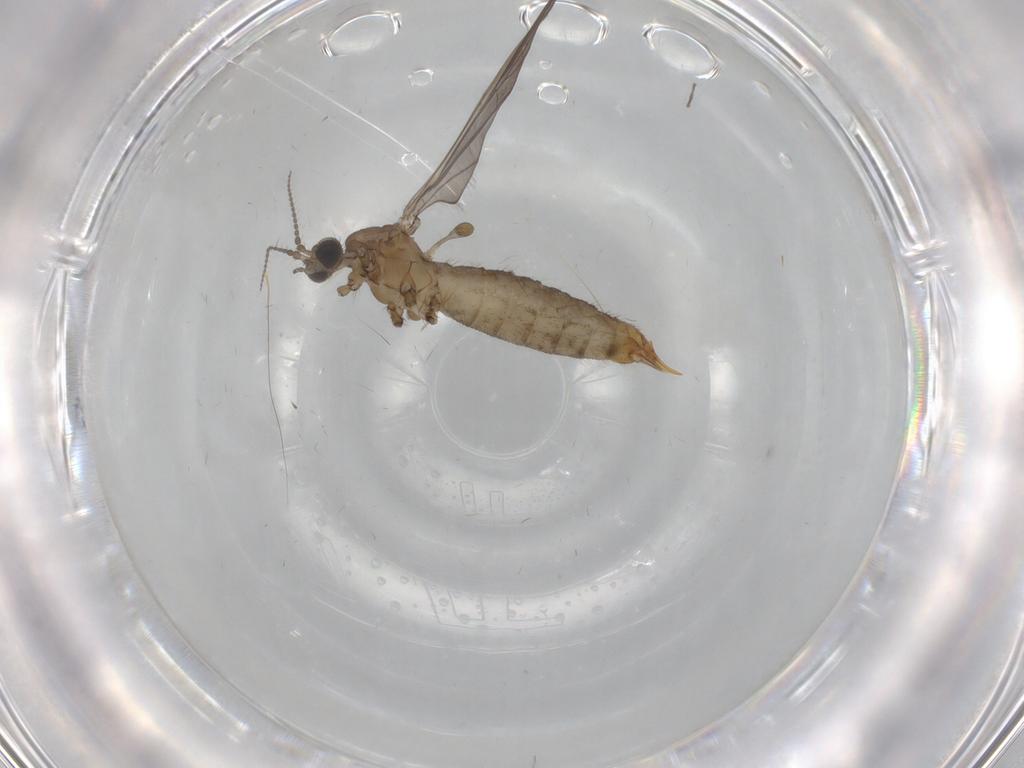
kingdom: Animalia
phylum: Arthropoda
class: Insecta
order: Diptera
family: Limoniidae
